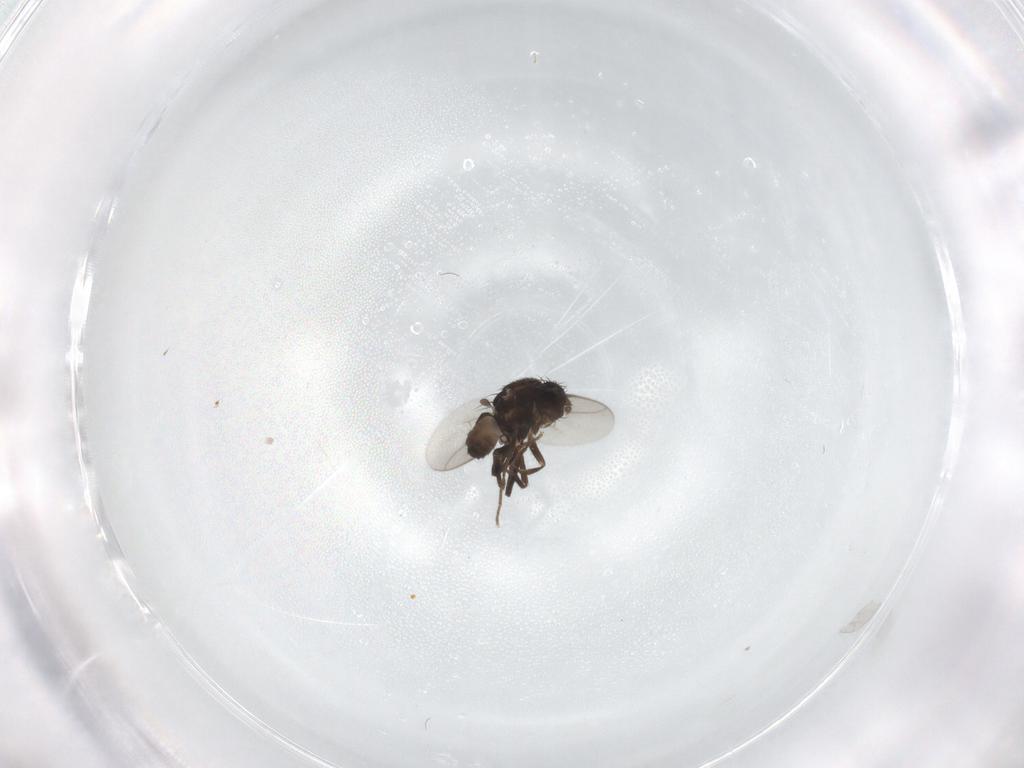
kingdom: Animalia
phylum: Arthropoda
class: Insecta
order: Diptera
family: Sphaeroceridae
